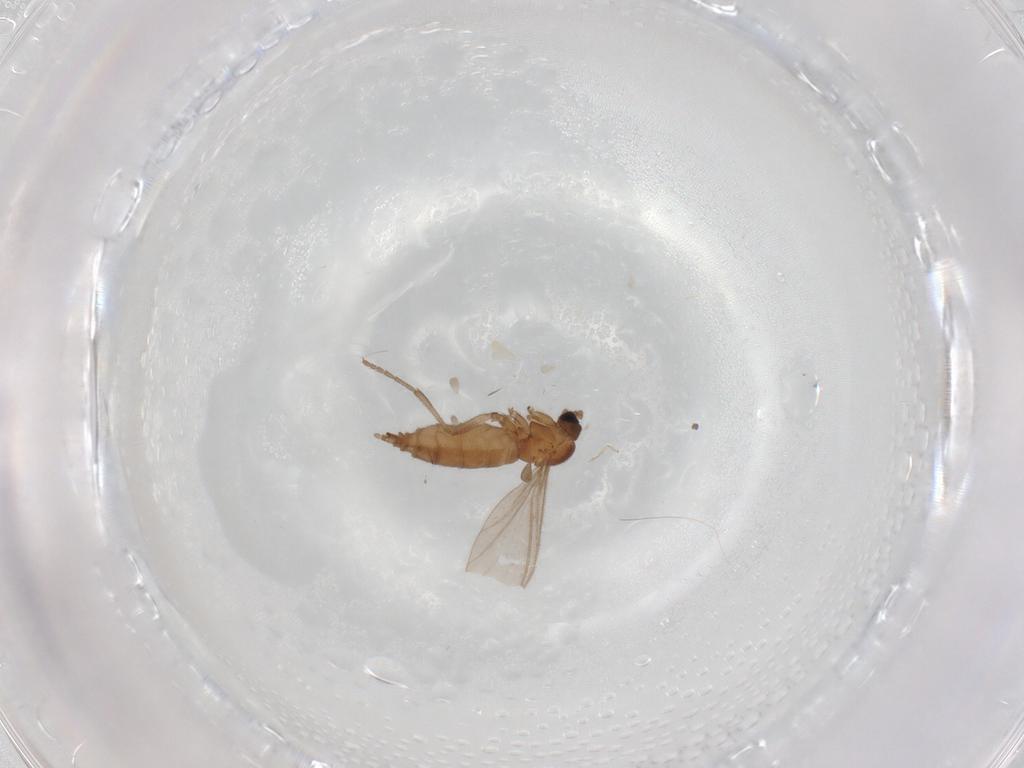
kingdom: Animalia
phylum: Arthropoda
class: Insecta
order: Diptera
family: Sciaridae
